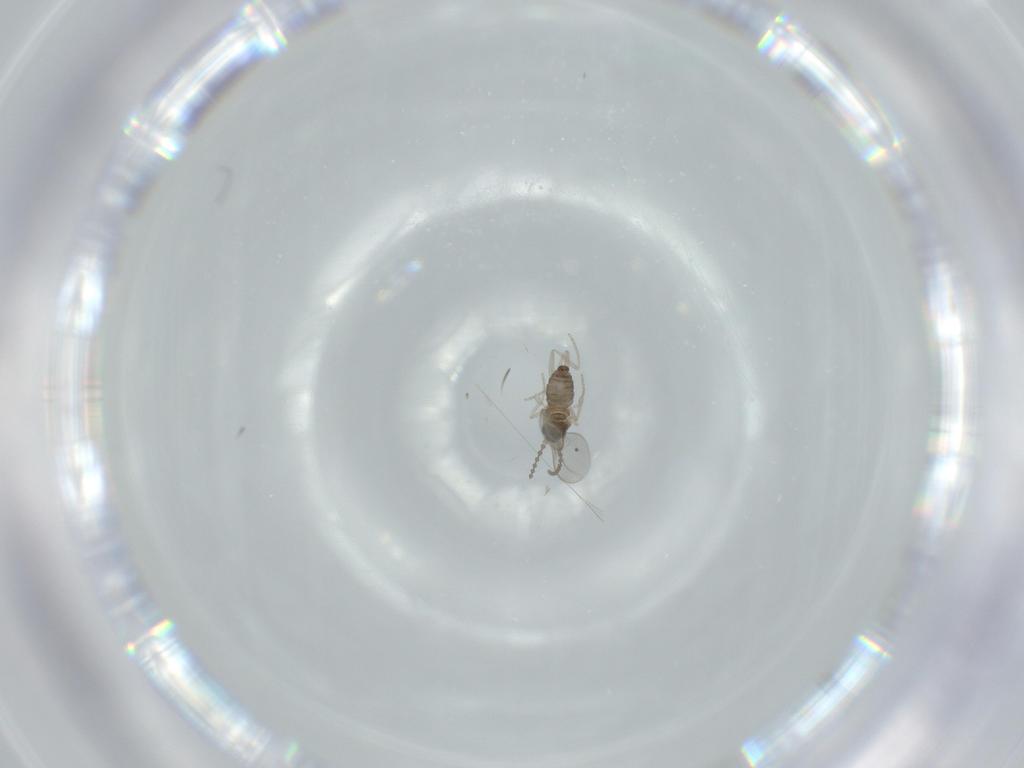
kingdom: Animalia
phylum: Arthropoda
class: Insecta
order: Diptera
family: Cecidomyiidae
